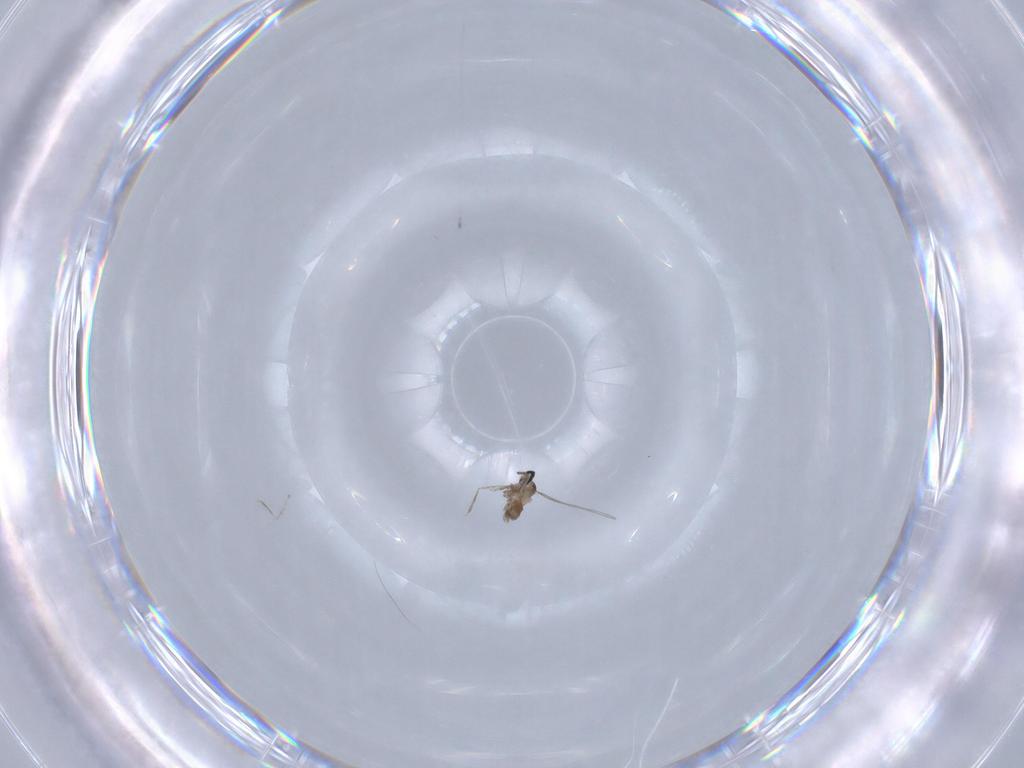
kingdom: Animalia
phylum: Arthropoda
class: Insecta
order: Diptera
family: Cecidomyiidae
